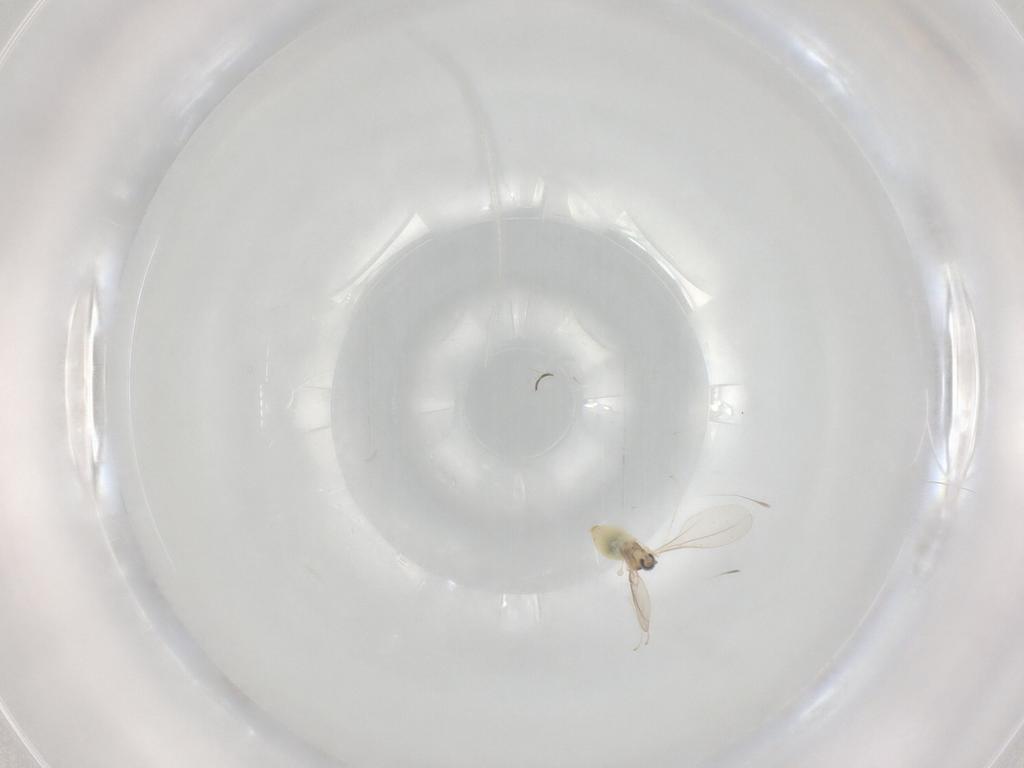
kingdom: Animalia
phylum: Arthropoda
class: Insecta
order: Diptera
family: Cecidomyiidae
